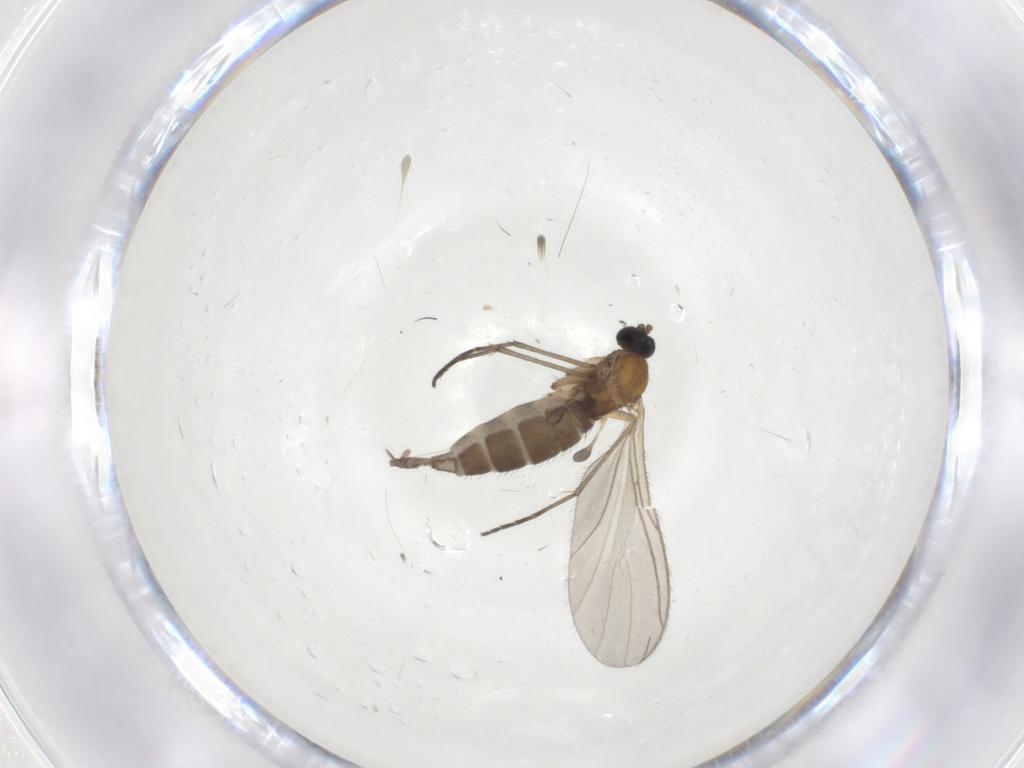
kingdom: Animalia
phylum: Arthropoda
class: Insecta
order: Diptera
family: Sciaridae
